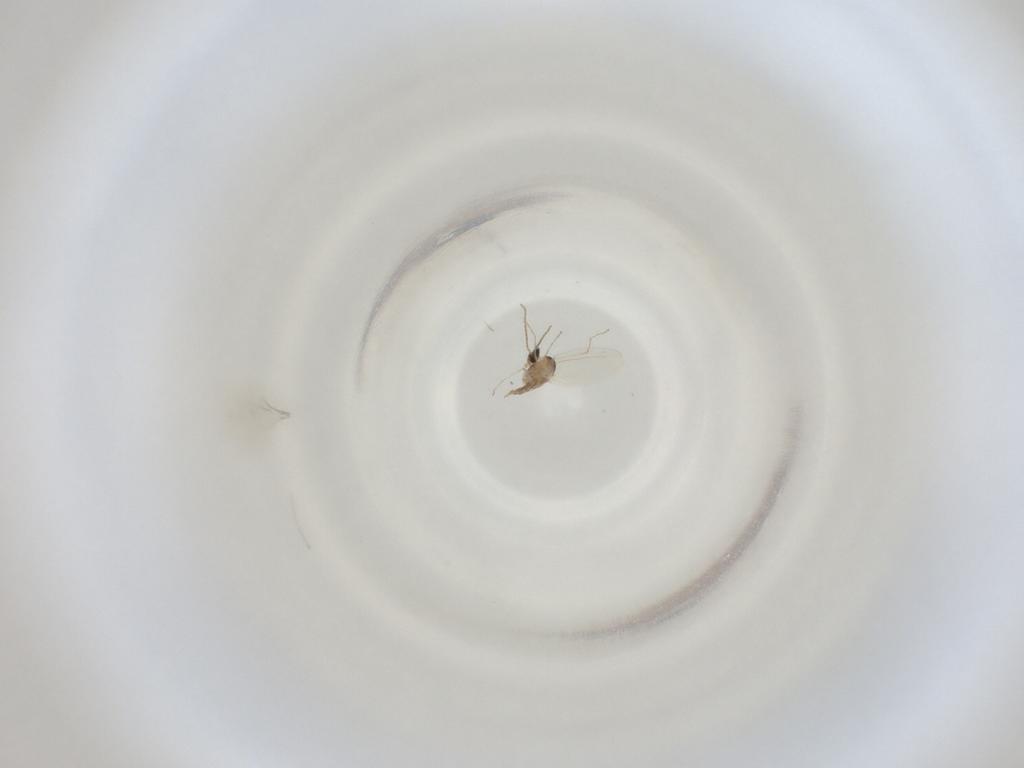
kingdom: Animalia
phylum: Arthropoda
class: Insecta
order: Diptera
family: Cecidomyiidae
